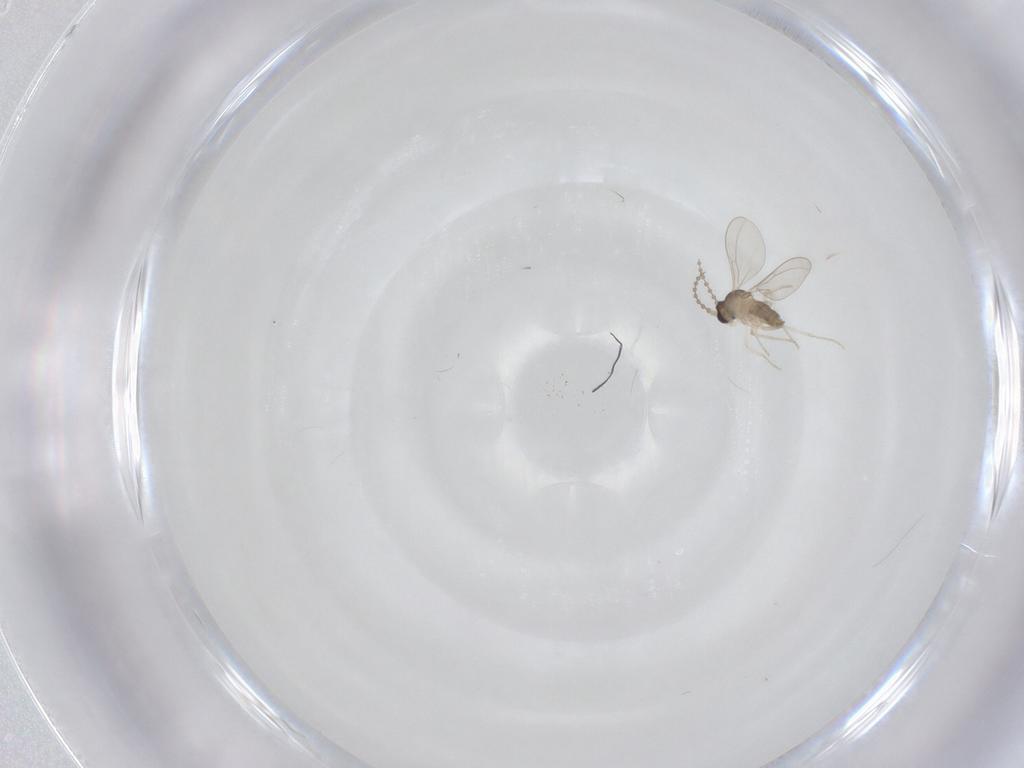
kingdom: Animalia
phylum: Arthropoda
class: Insecta
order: Diptera
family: Cecidomyiidae
